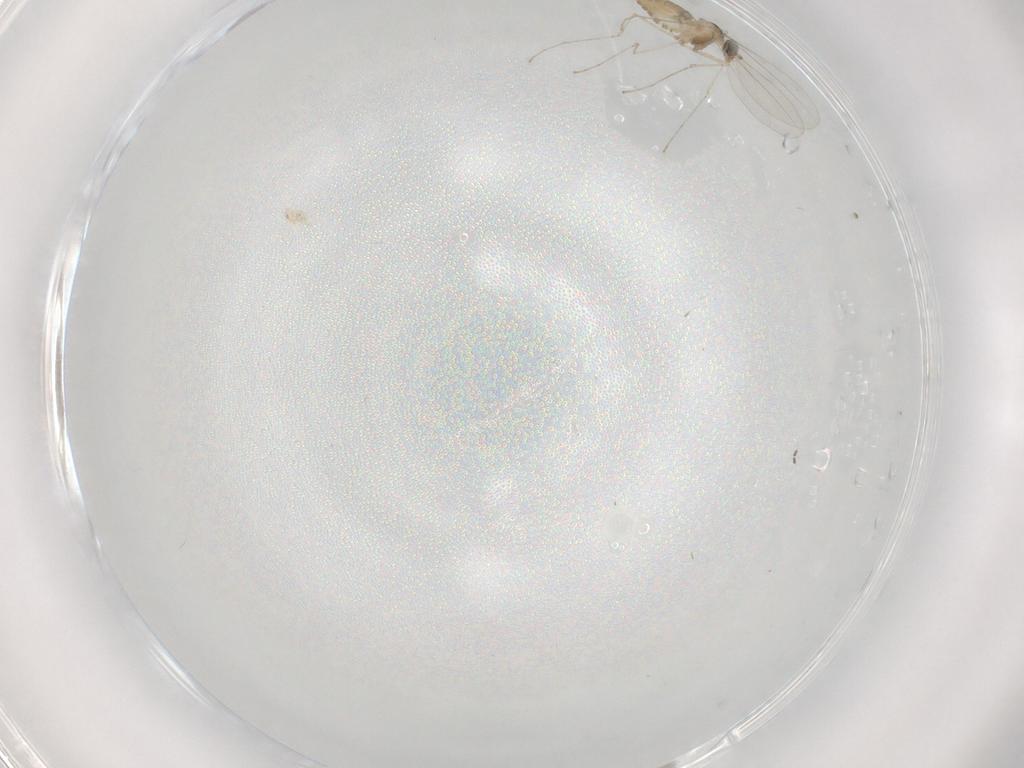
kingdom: Animalia
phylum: Arthropoda
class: Insecta
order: Diptera
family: Cecidomyiidae
